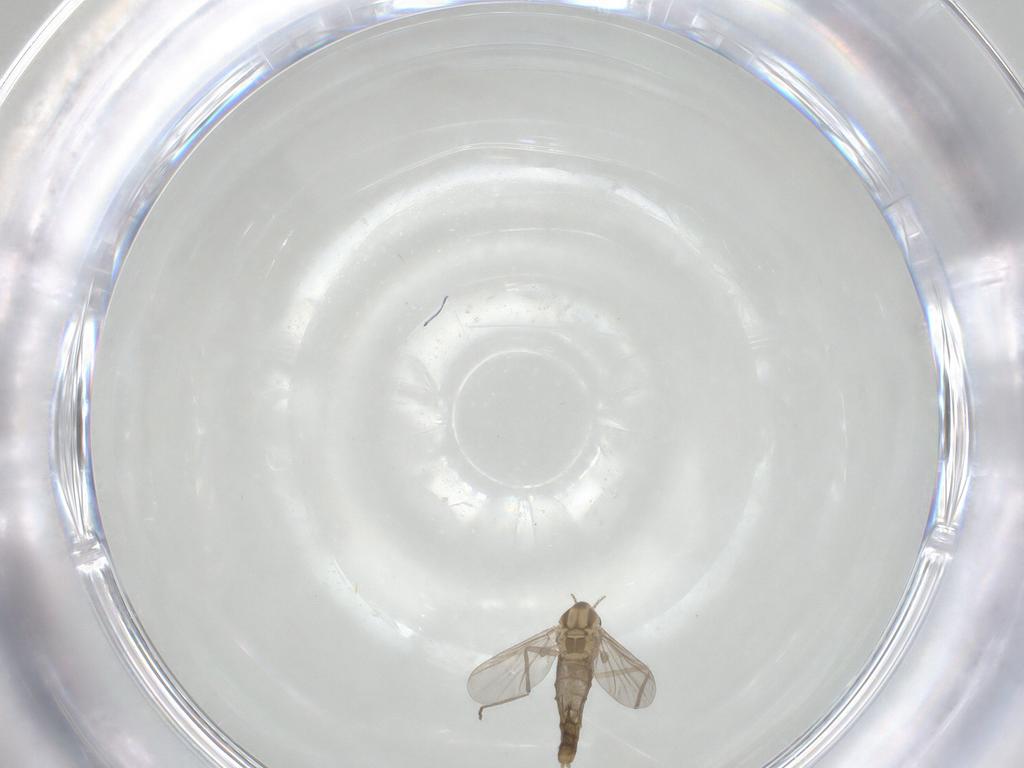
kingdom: Animalia
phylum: Arthropoda
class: Insecta
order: Diptera
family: Chironomidae
